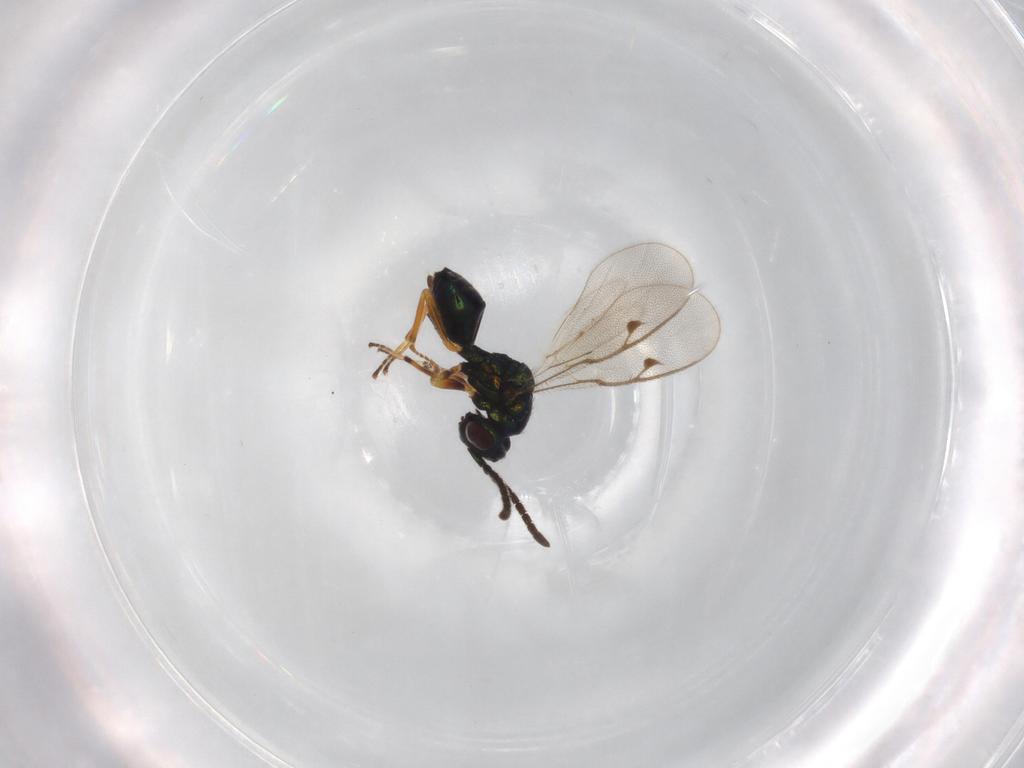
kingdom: Animalia
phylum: Arthropoda
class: Insecta
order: Hymenoptera
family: Pteromalidae
